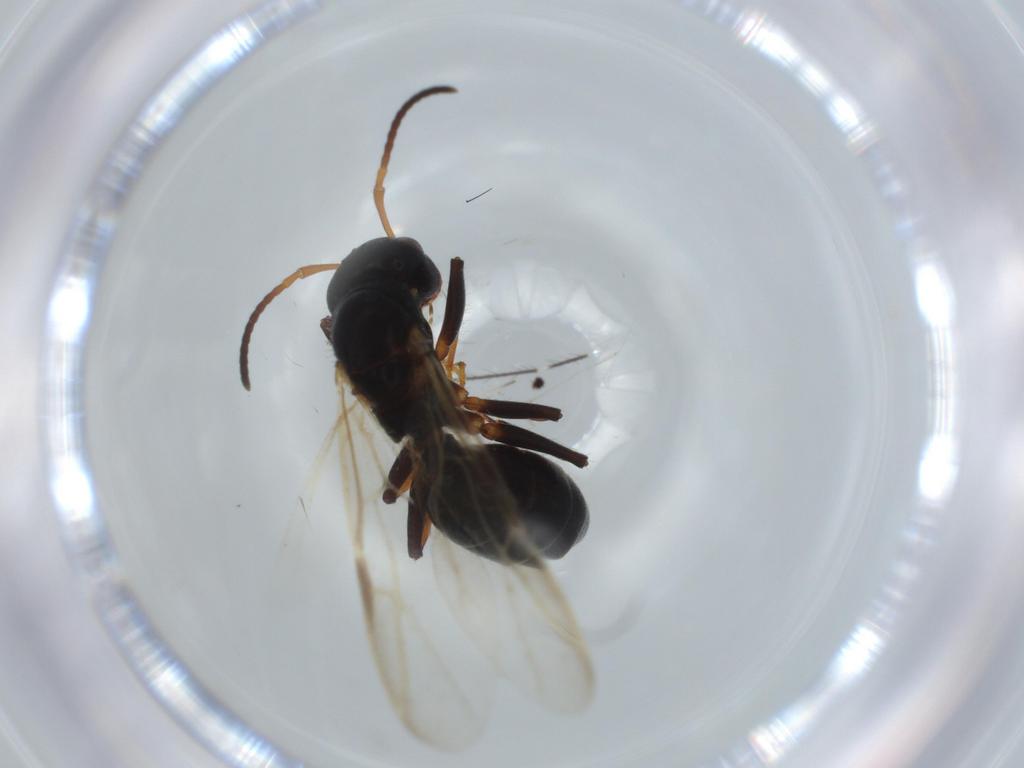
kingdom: Animalia
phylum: Arthropoda
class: Insecta
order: Hymenoptera
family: Formicidae
